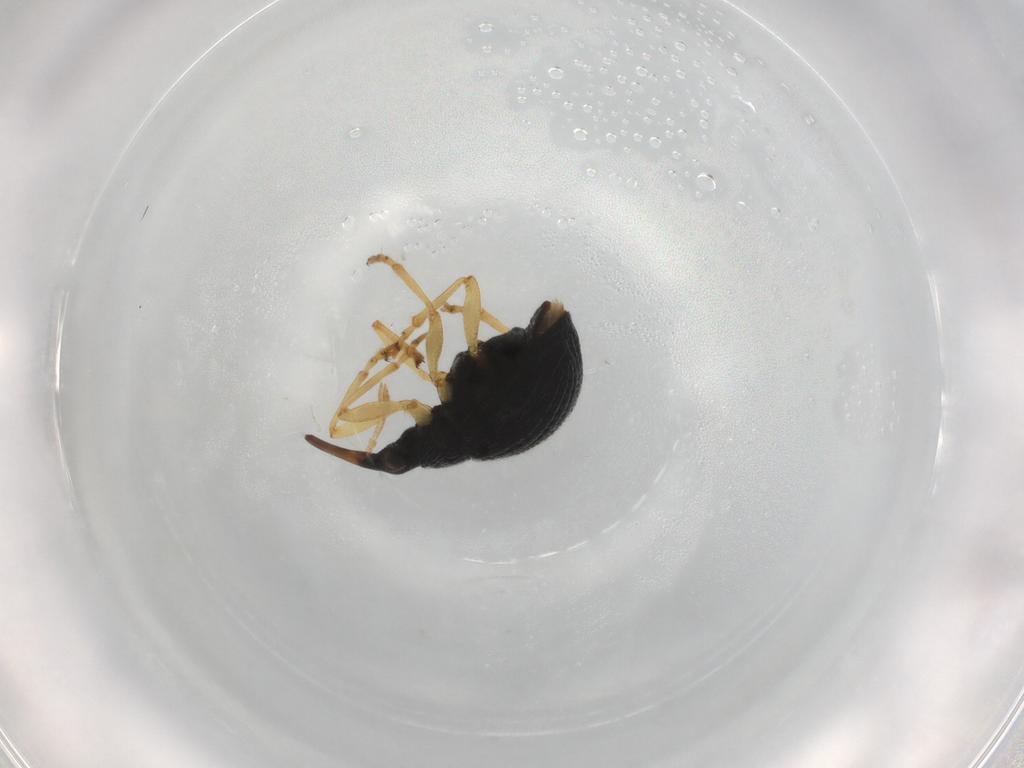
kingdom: Animalia
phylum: Arthropoda
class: Insecta
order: Coleoptera
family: Brentidae
